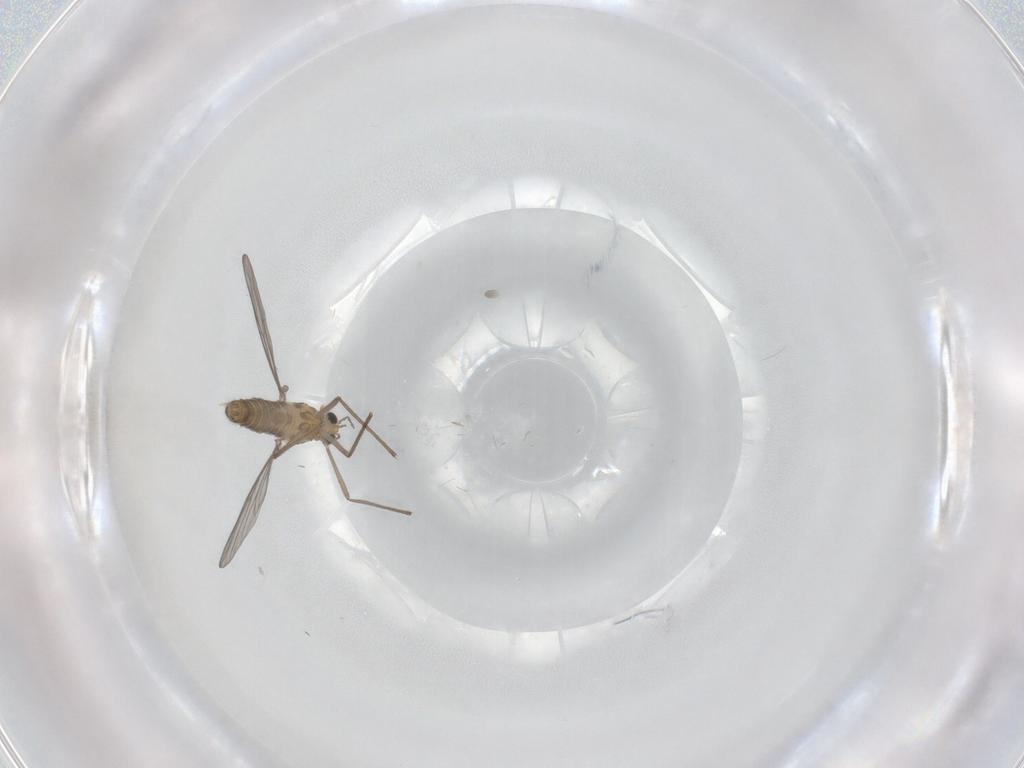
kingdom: Animalia
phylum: Arthropoda
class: Insecta
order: Diptera
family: Chironomidae
